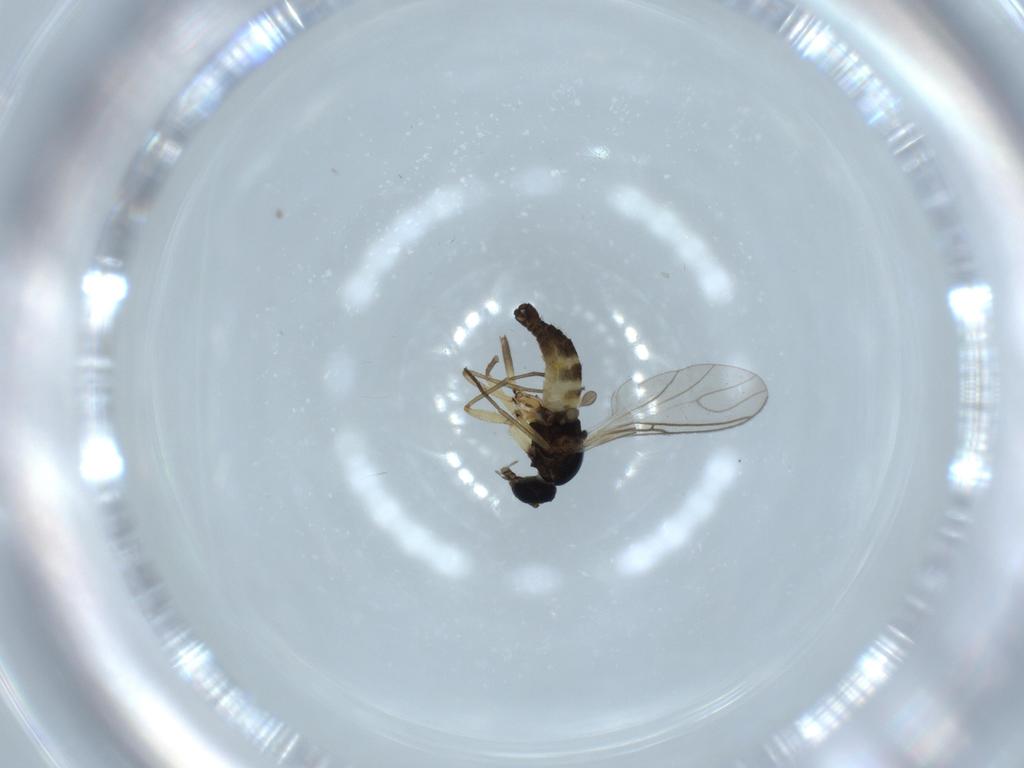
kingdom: Animalia
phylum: Arthropoda
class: Insecta
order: Diptera
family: Sciaridae
